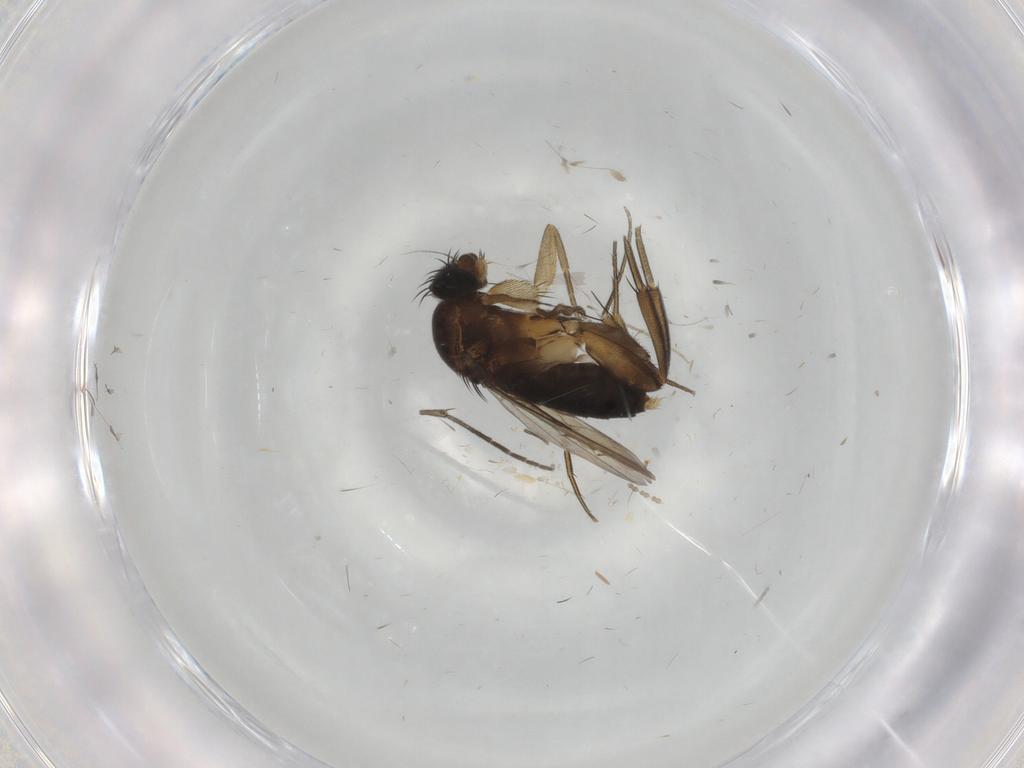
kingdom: Animalia
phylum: Arthropoda
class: Insecta
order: Diptera
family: Phoridae
